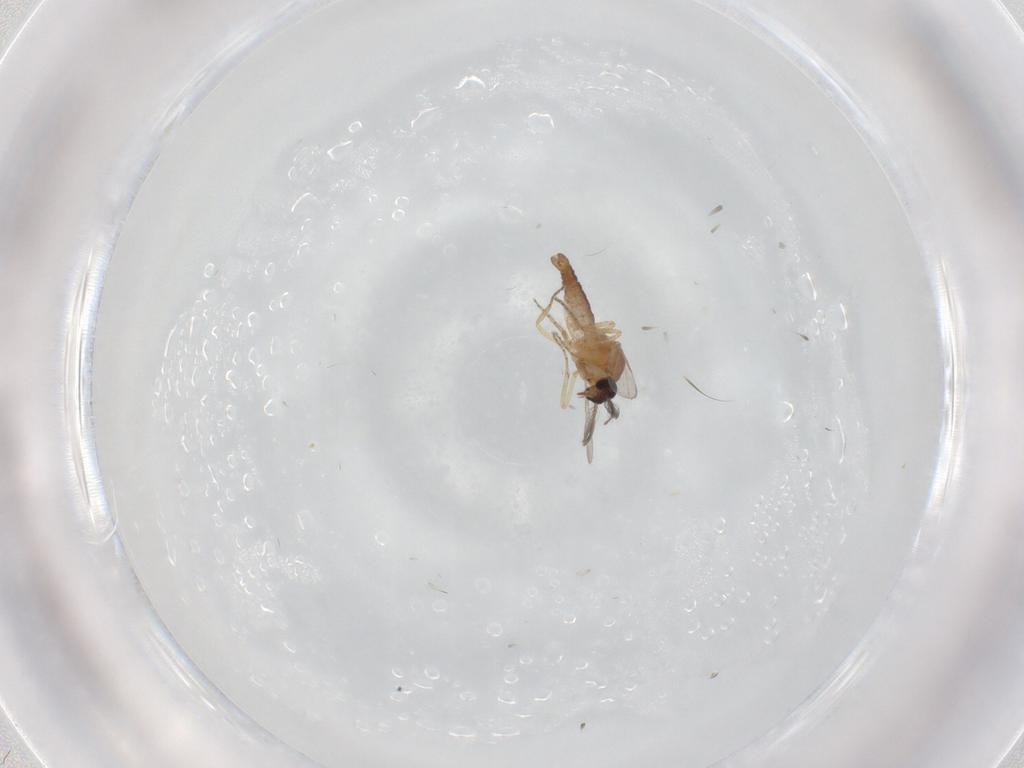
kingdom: Animalia
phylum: Arthropoda
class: Insecta
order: Diptera
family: Ceratopogonidae
